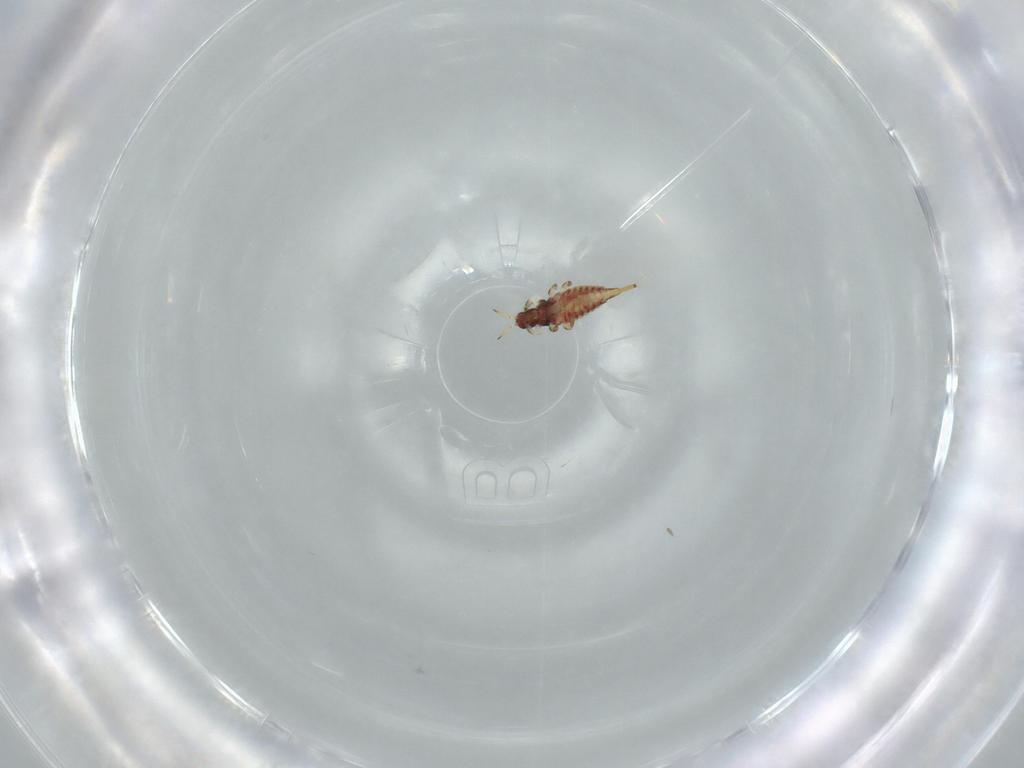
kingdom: Animalia
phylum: Arthropoda
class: Insecta
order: Thysanoptera
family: Phlaeothripidae
